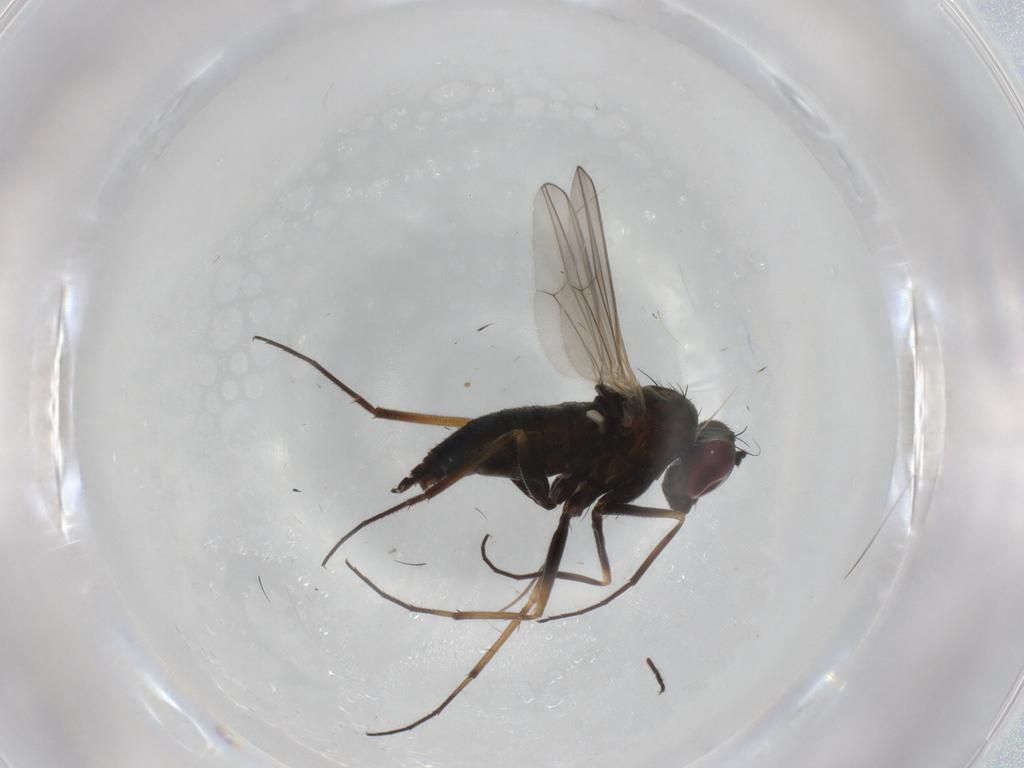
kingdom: Animalia
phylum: Arthropoda
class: Insecta
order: Diptera
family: Dolichopodidae
